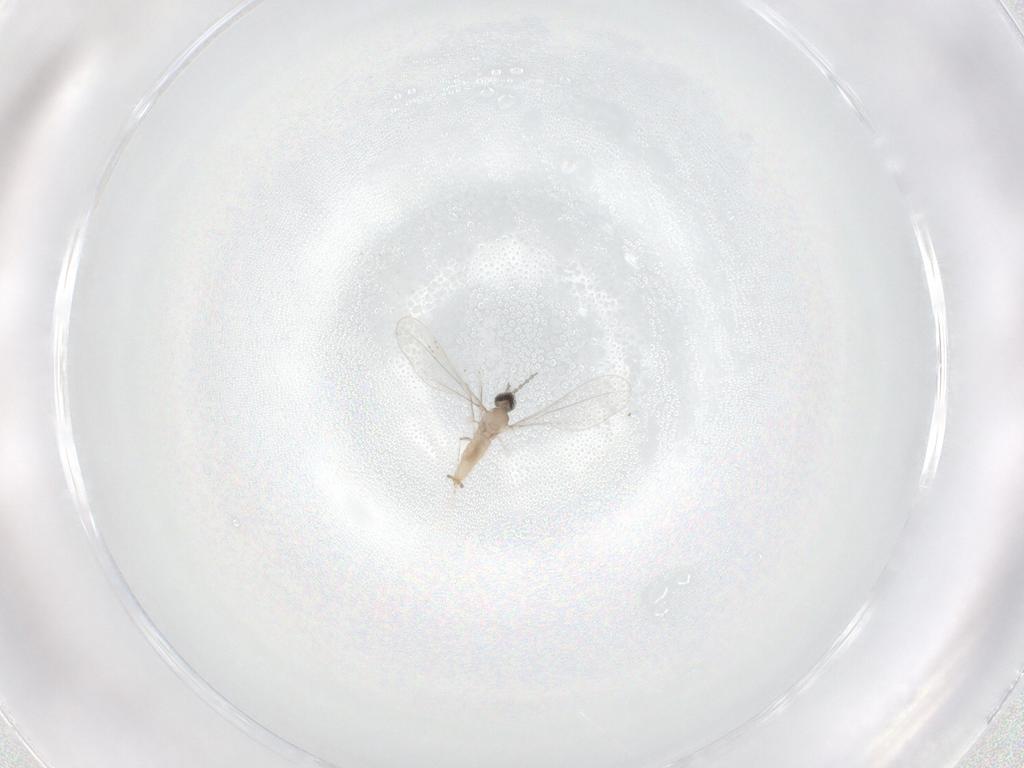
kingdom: Animalia
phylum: Arthropoda
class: Insecta
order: Diptera
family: Cecidomyiidae
